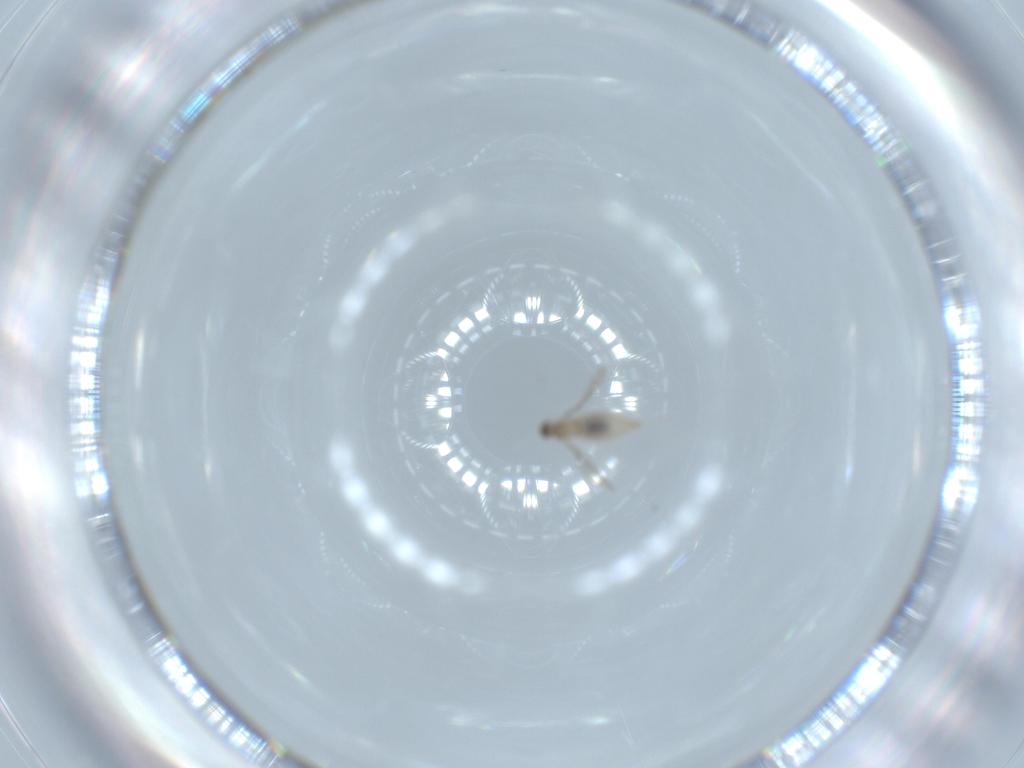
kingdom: Animalia
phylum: Arthropoda
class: Insecta
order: Diptera
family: Cecidomyiidae
